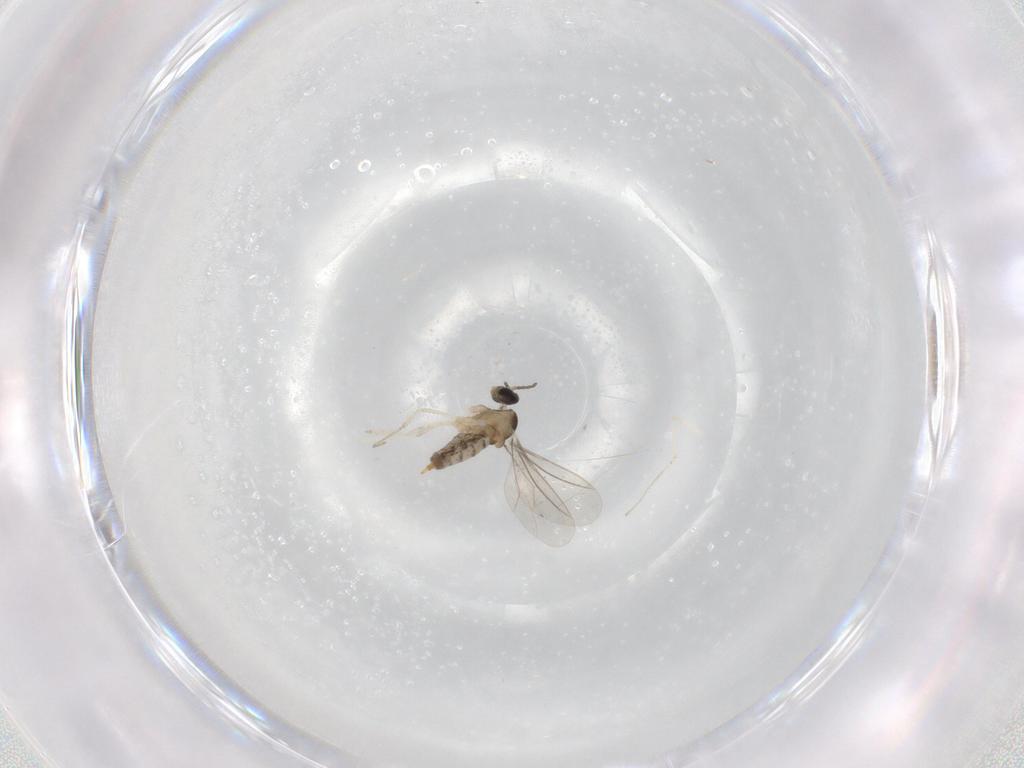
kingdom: Animalia
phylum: Arthropoda
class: Insecta
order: Diptera
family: Cecidomyiidae
